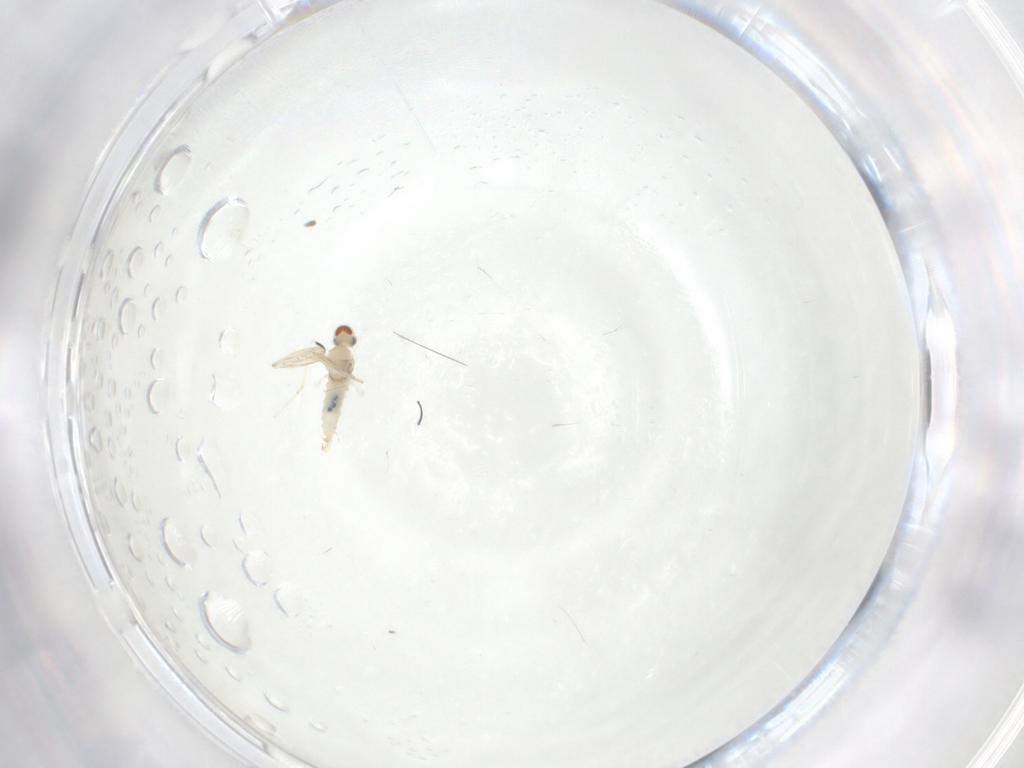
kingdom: Animalia
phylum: Arthropoda
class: Insecta
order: Diptera
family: Cecidomyiidae
